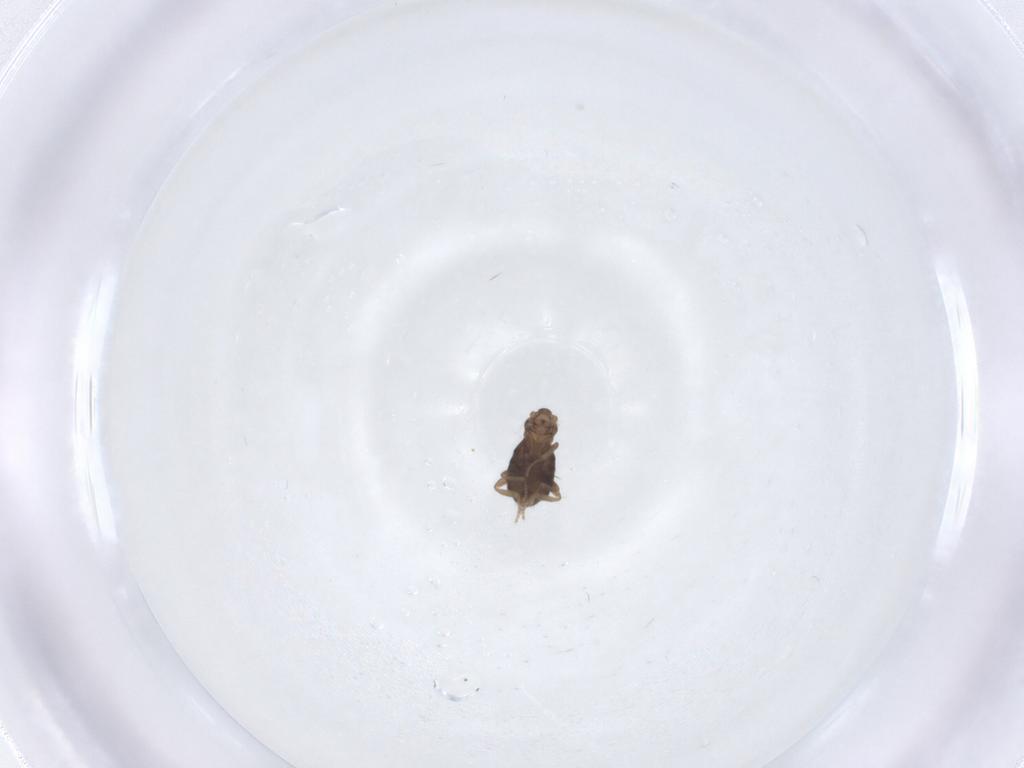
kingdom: Animalia
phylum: Arthropoda
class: Insecta
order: Diptera
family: Phoridae
